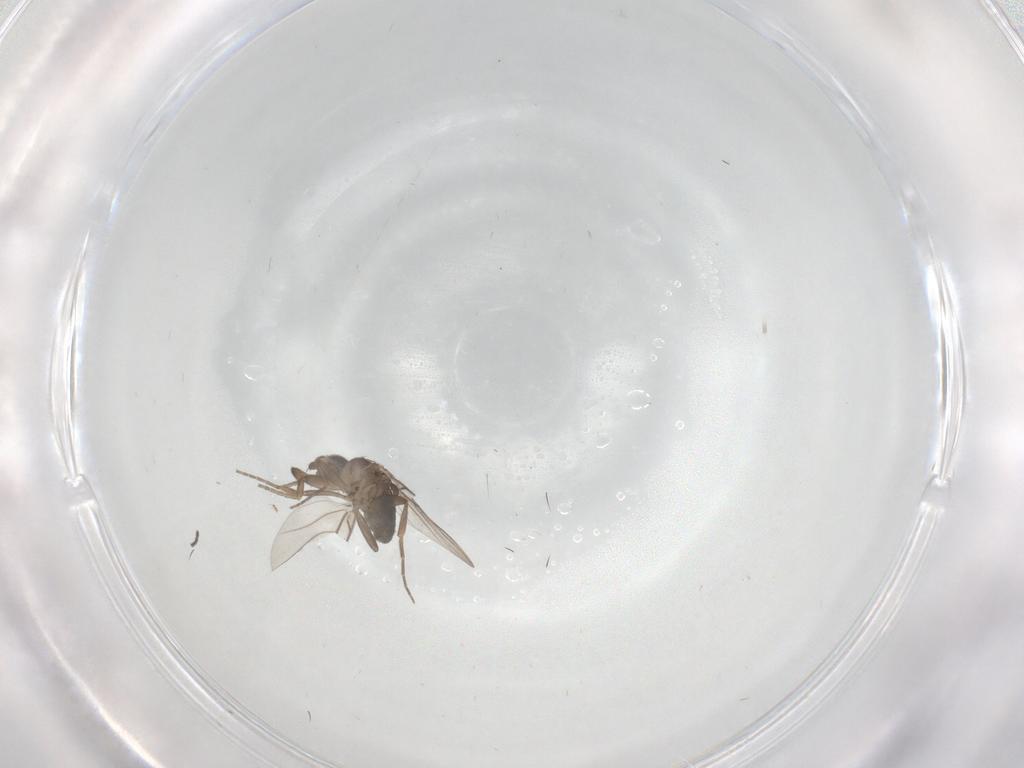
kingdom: Animalia
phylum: Arthropoda
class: Insecta
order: Diptera
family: Phoridae
